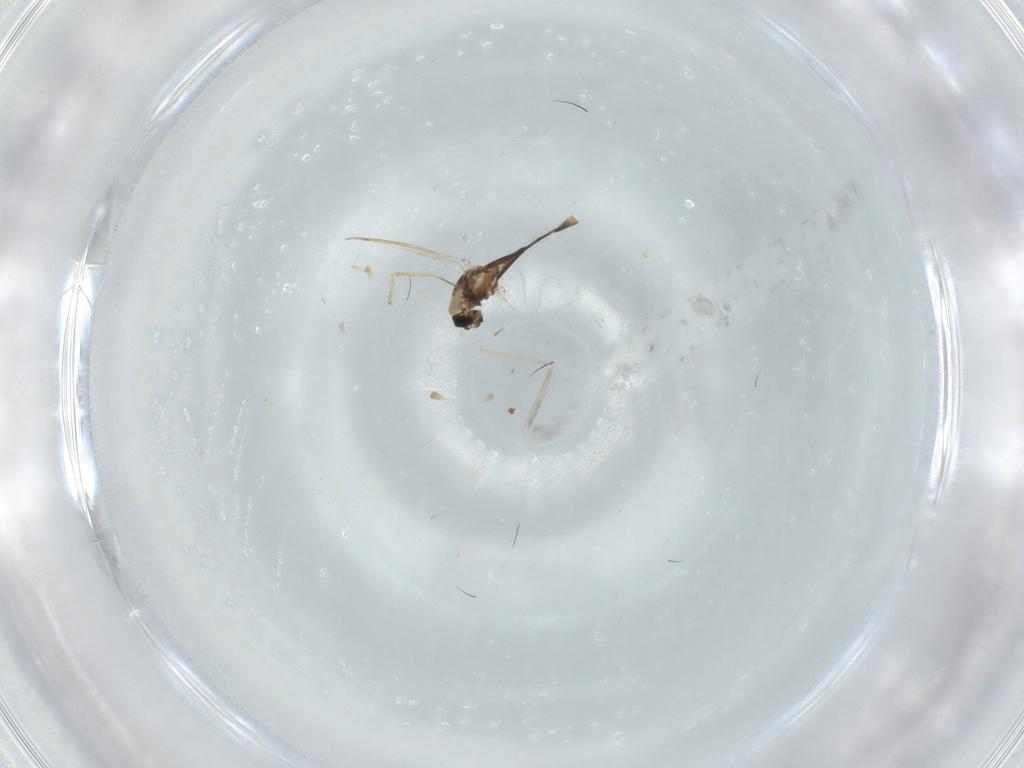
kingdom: Animalia
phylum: Arthropoda
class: Insecta
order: Diptera
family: Chironomidae
